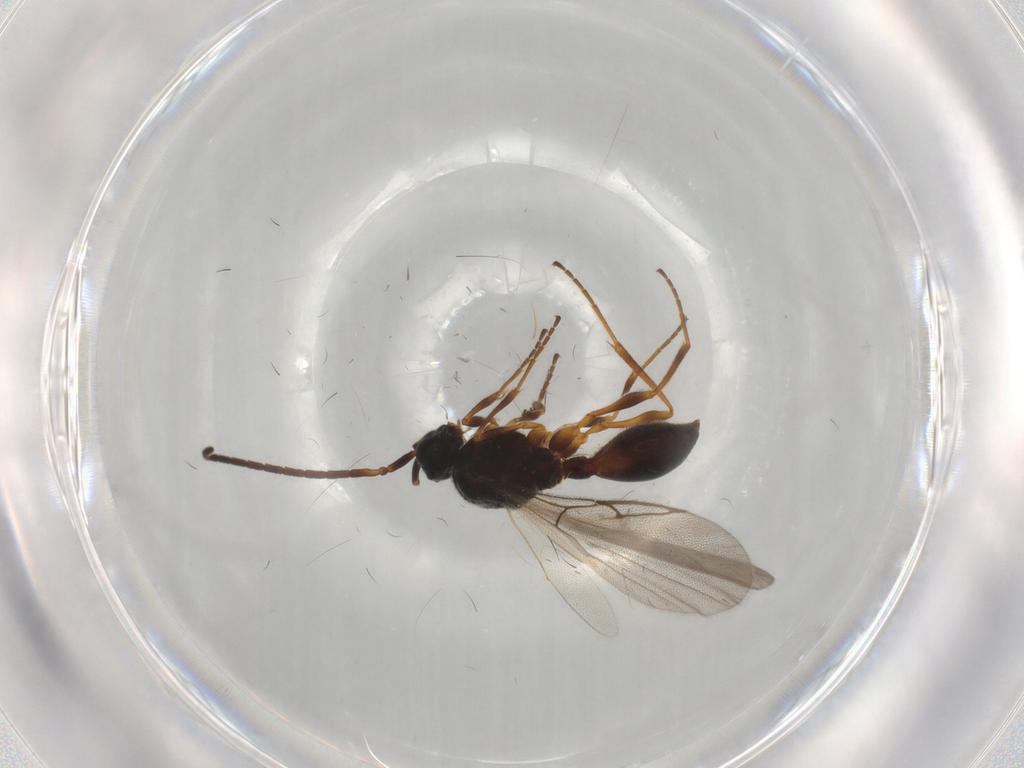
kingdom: Animalia
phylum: Arthropoda
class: Insecta
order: Hymenoptera
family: Diapriidae
